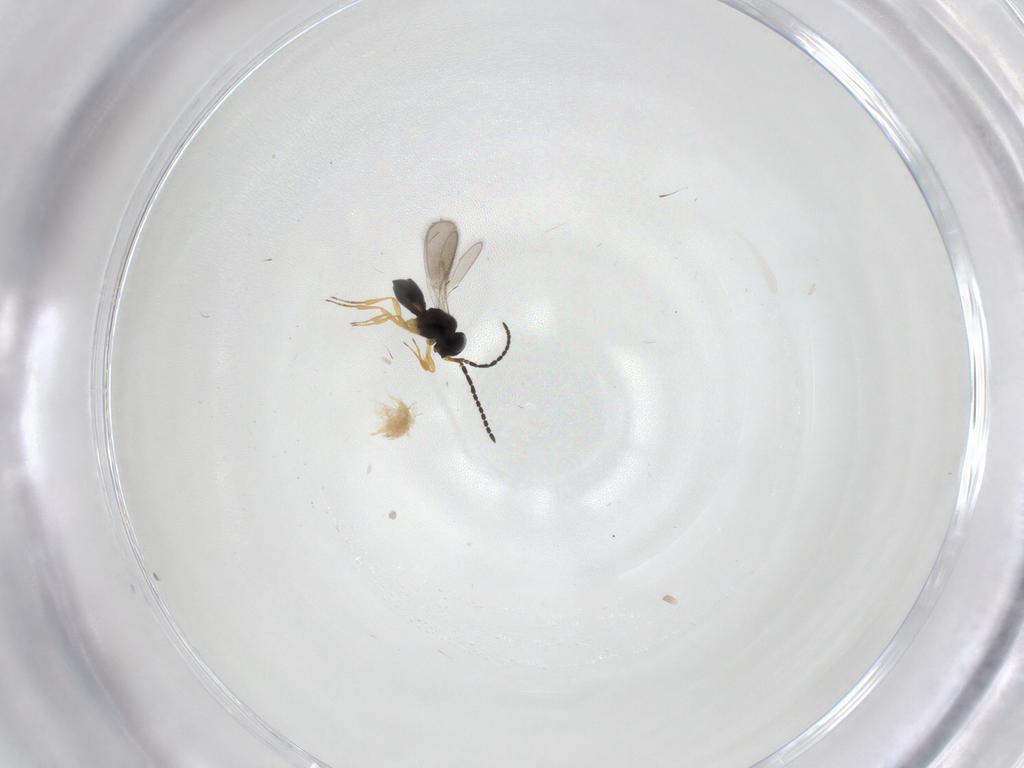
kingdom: Animalia
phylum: Arthropoda
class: Insecta
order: Hymenoptera
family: Scelionidae
